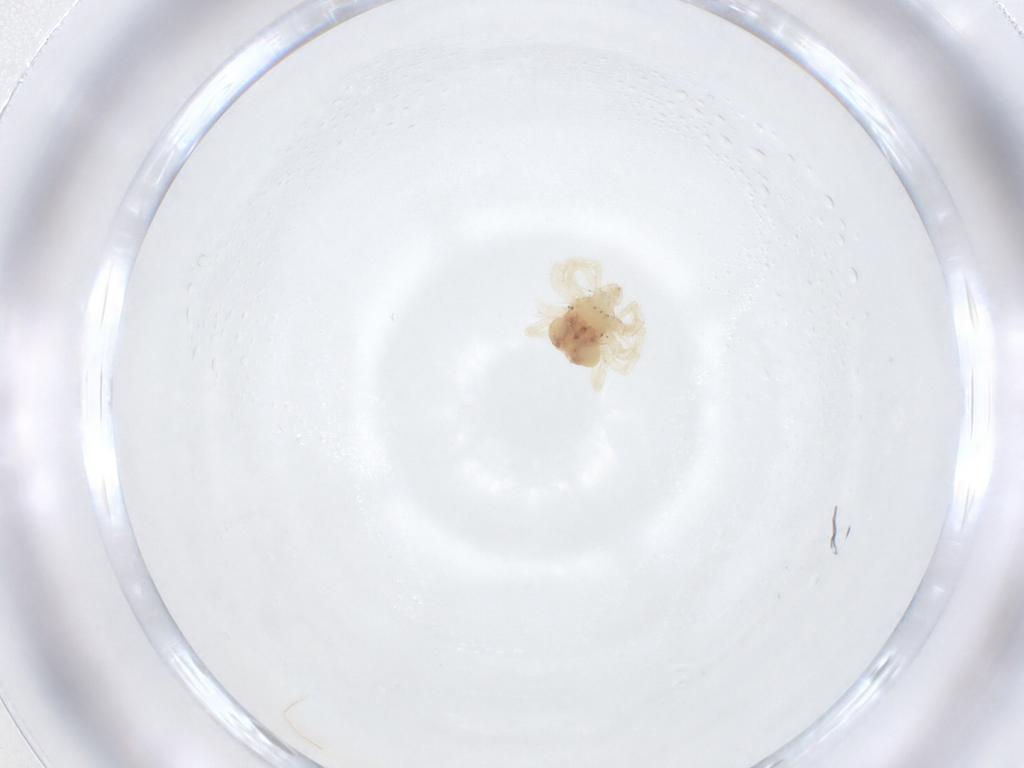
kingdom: Animalia
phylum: Arthropoda
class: Arachnida
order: Trombidiformes
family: Anystidae
